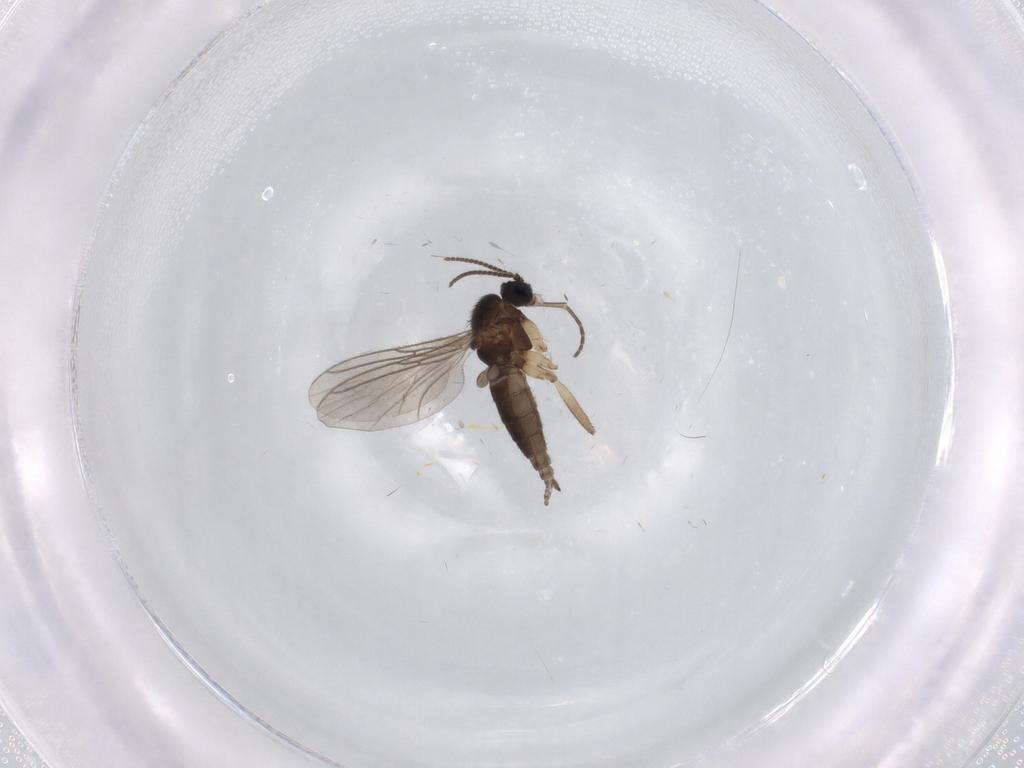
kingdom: Animalia
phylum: Arthropoda
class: Insecta
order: Diptera
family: Sciaridae
